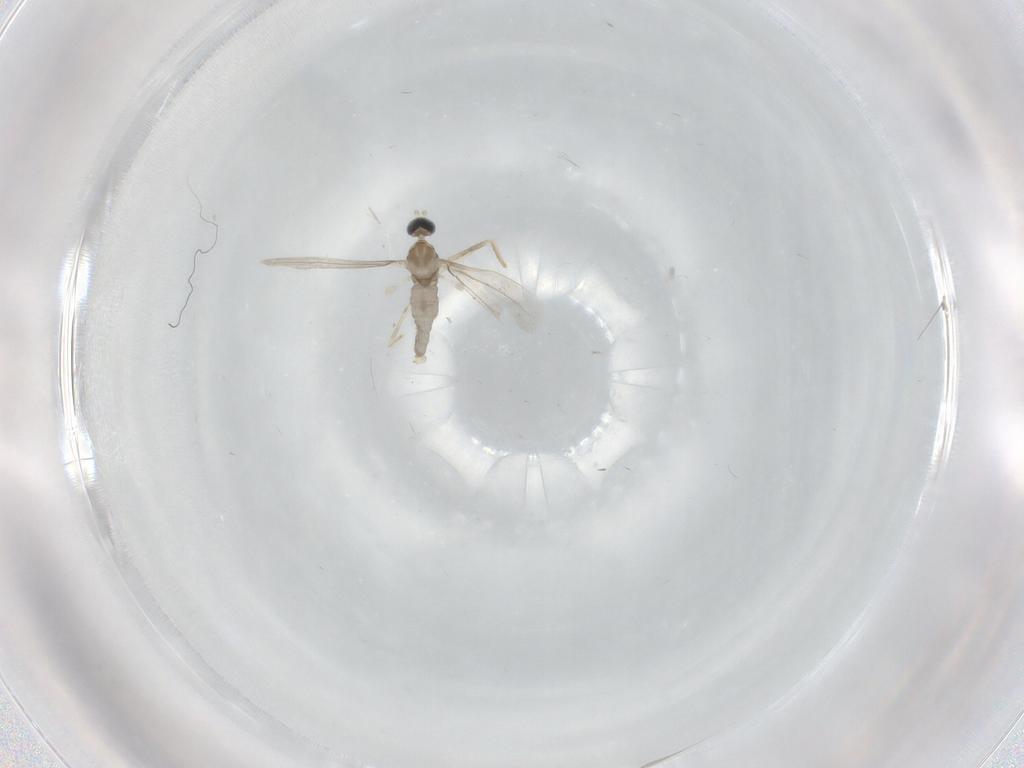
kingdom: Animalia
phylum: Arthropoda
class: Insecta
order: Diptera
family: Cecidomyiidae
